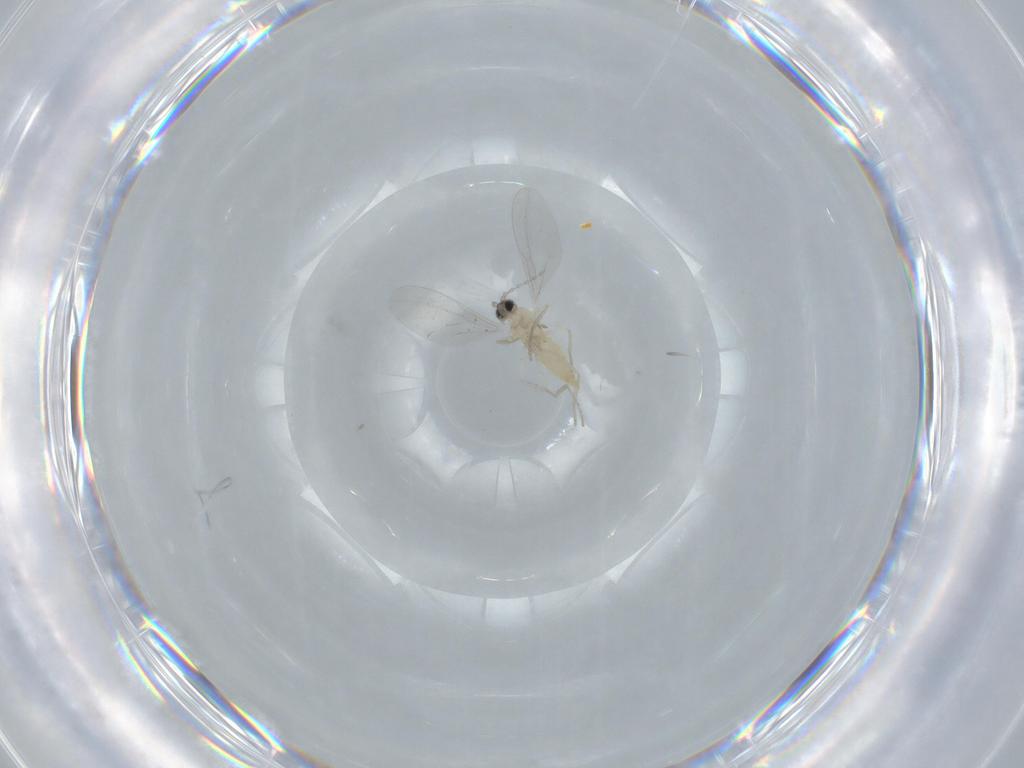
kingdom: Animalia
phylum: Arthropoda
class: Insecta
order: Diptera
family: Cecidomyiidae
